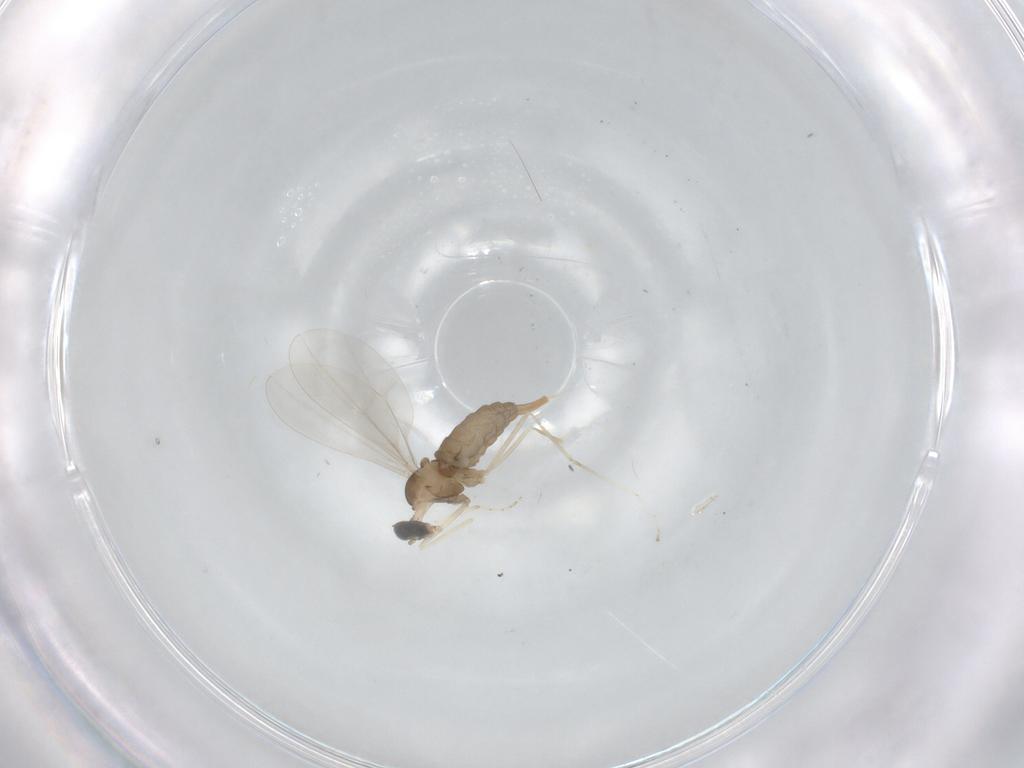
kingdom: Animalia
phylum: Arthropoda
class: Insecta
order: Diptera
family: Cecidomyiidae
